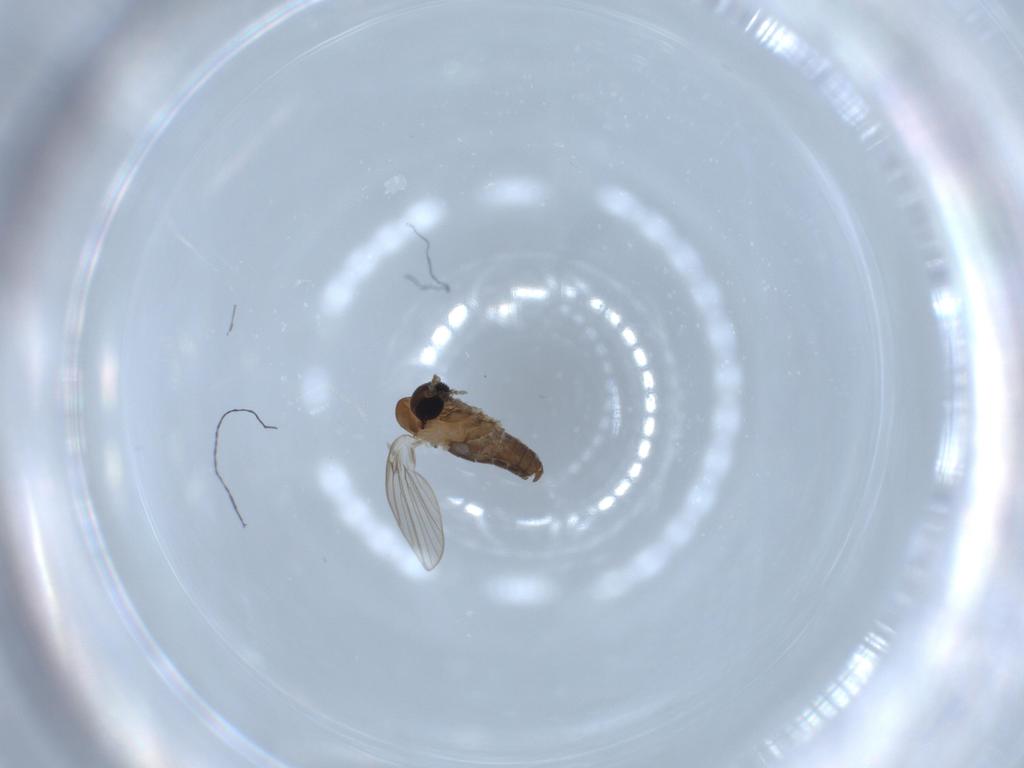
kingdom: Animalia
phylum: Arthropoda
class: Insecta
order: Diptera
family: Psychodidae
